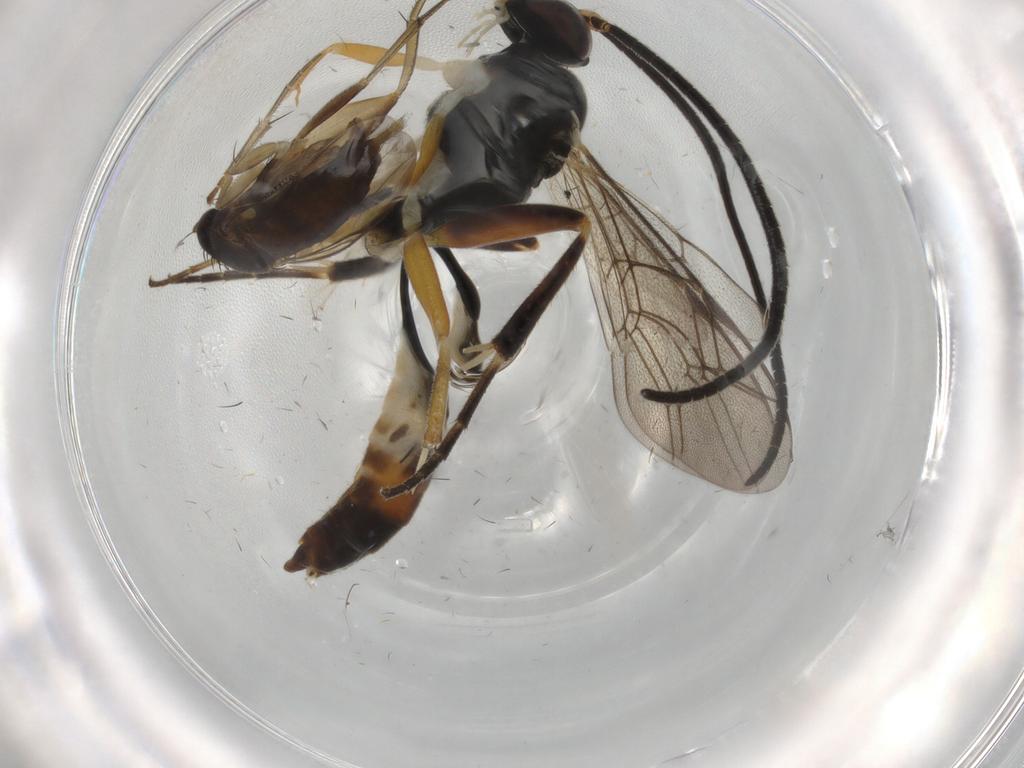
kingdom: Animalia
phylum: Arthropoda
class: Insecta
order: Diptera
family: Phoridae
